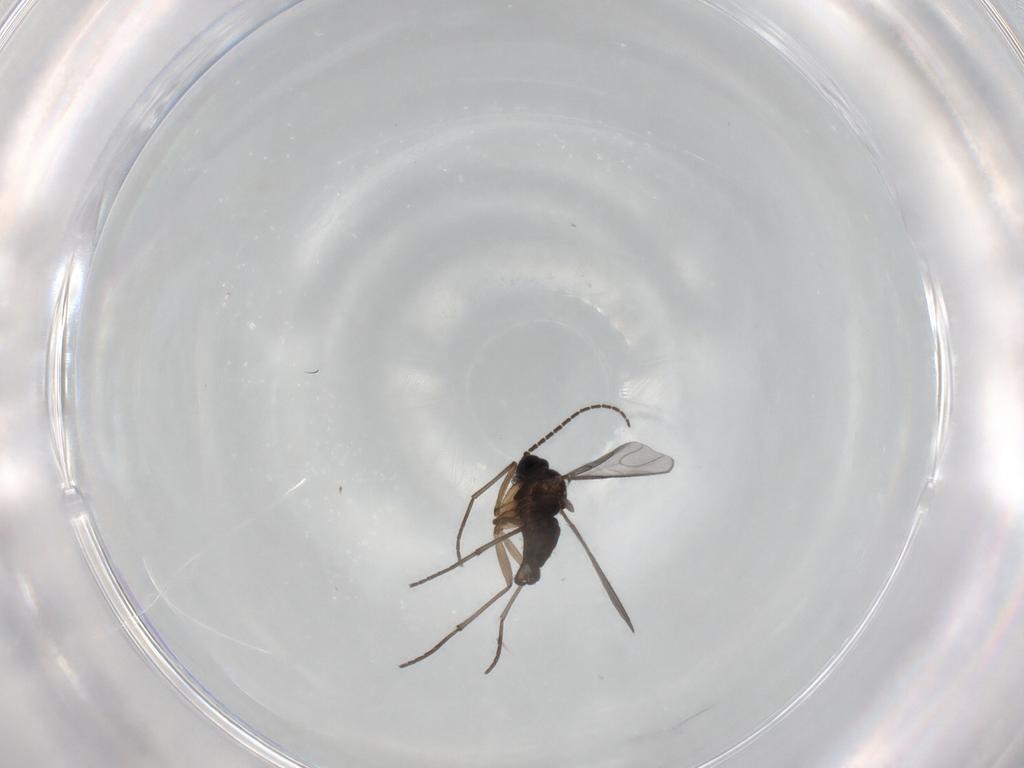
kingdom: Animalia
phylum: Arthropoda
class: Insecta
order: Diptera
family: Sciaridae
